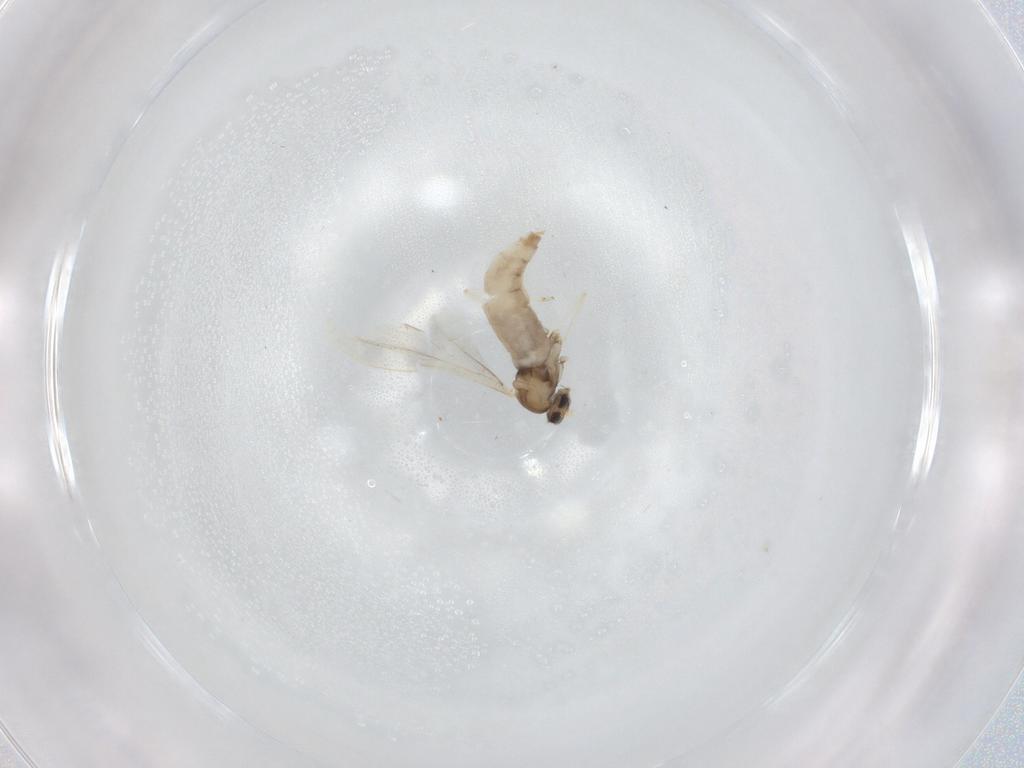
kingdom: Animalia
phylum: Arthropoda
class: Insecta
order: Diptera
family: Cecidomyiidae
